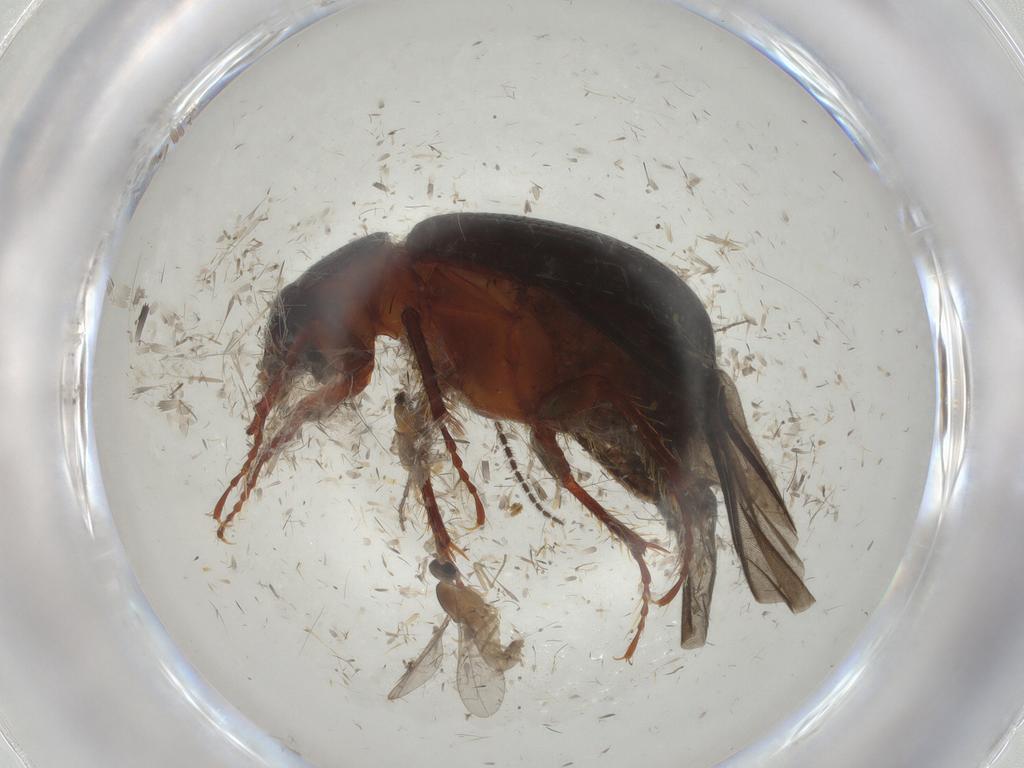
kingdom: Animalia
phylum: Arthropoda
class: Insecta
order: Diptera
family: Cecidomyiidae
